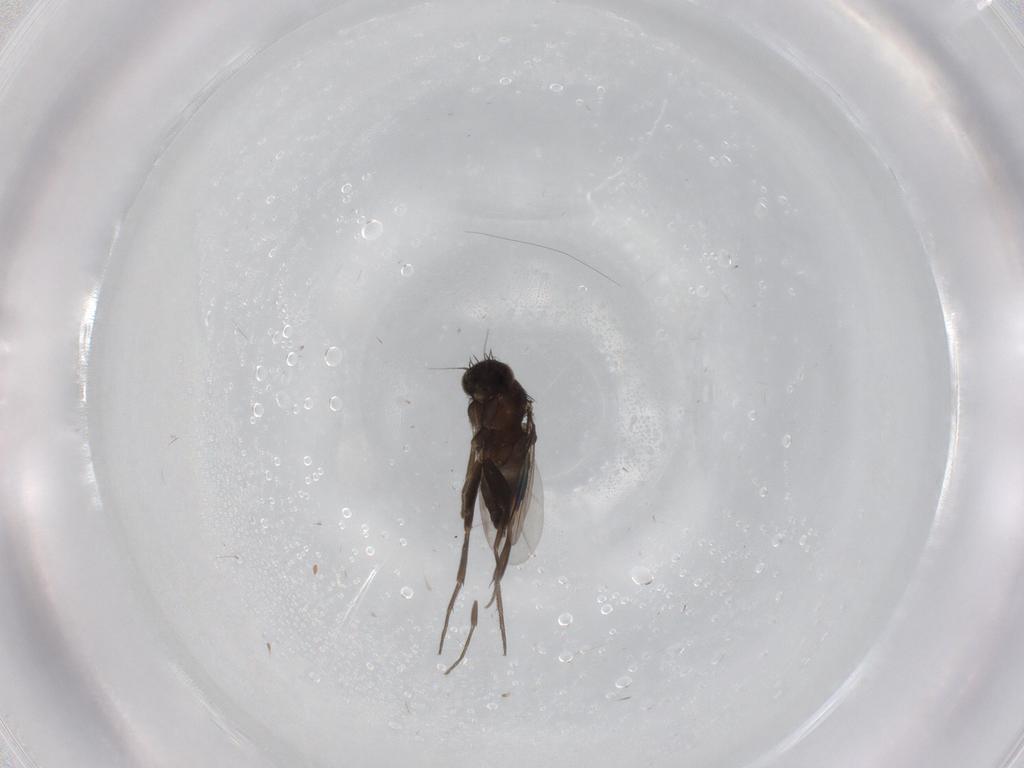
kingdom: Animalia
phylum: Arthropoda
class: Insecta
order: Diptera
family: Phoridae
